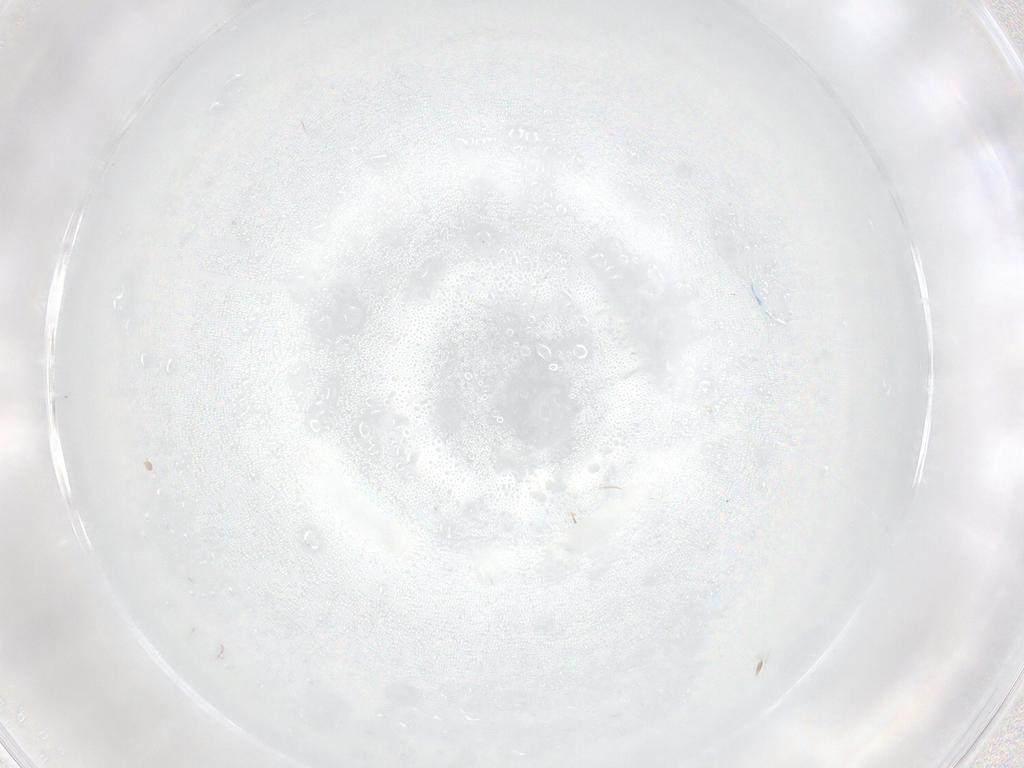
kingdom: Animalia
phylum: Arthropoda
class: Insecta
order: Diptera
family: Cecidomyiidae
